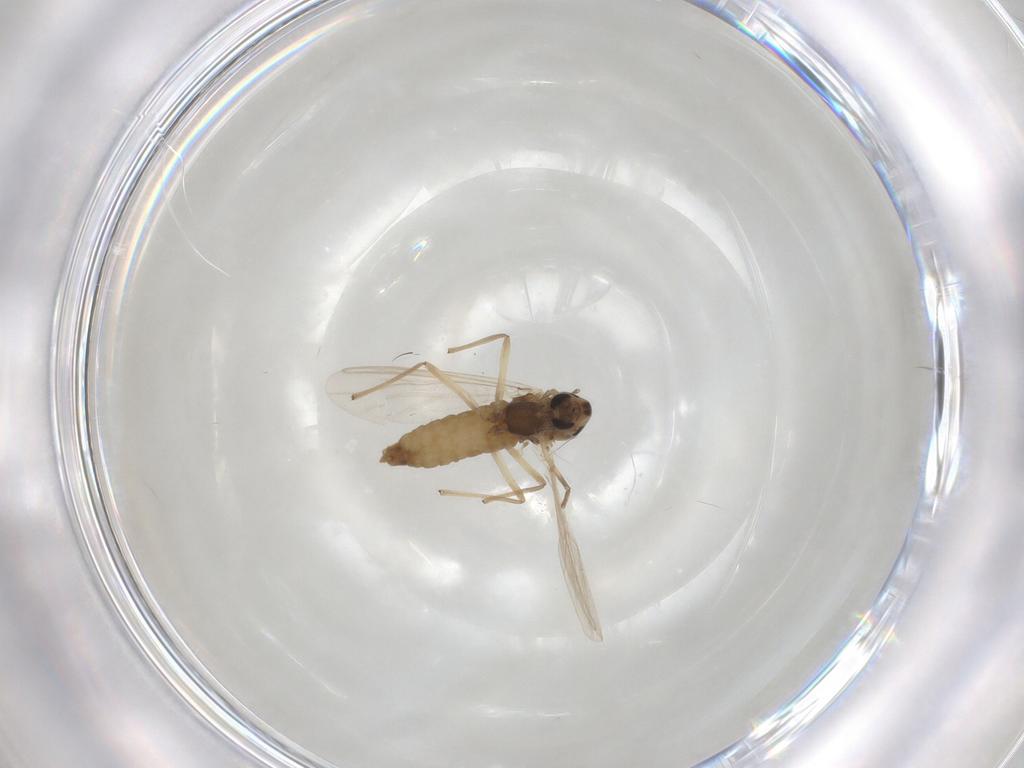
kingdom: Animalia
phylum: Arthropoda
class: Insecta
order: Diptera
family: Chironomidae
